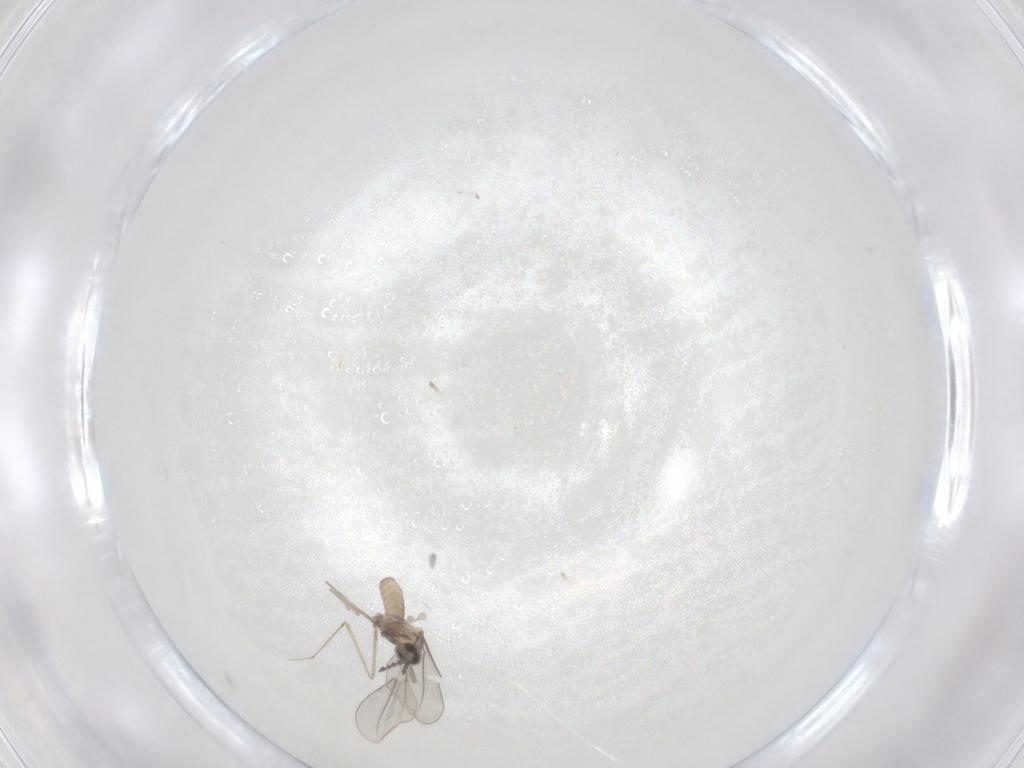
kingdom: Animalia
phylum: Arthropoda
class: Insecta
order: Diptera
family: Cecidomyiidae
